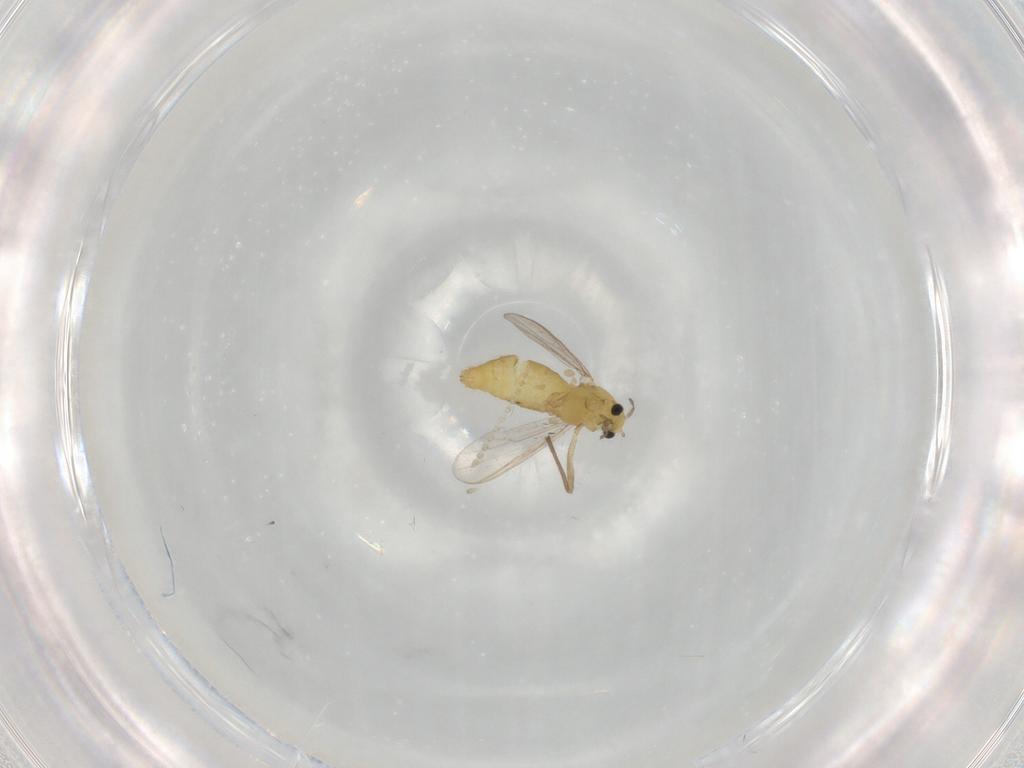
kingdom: Animalia
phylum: Arthropoda
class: Insecta
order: Diptera
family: Chironomidae
